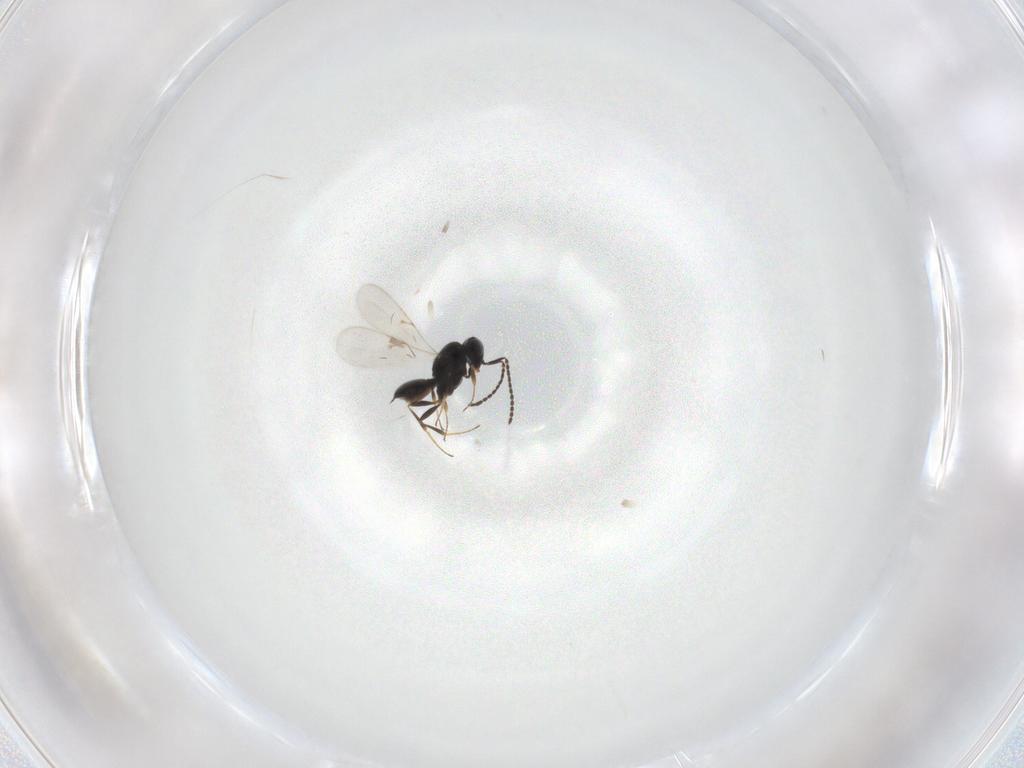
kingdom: Animalia
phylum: Arthropoda
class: Insecta
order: Hymenoptera
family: Scelionidae
